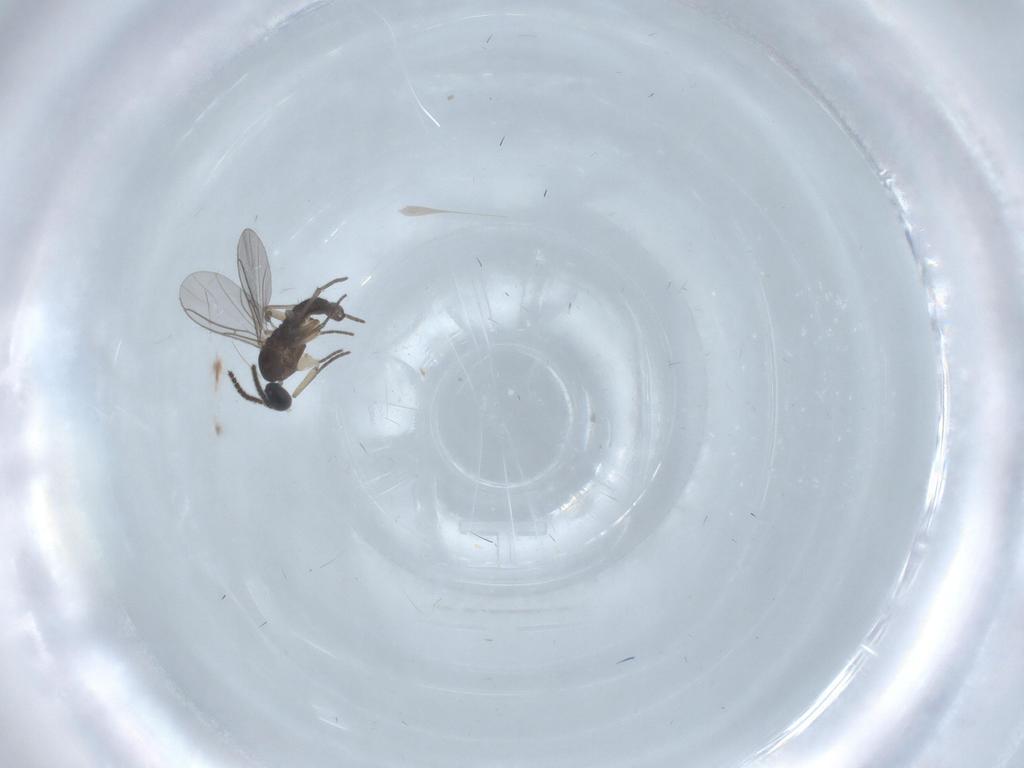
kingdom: Animalia
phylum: Arthropoda
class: Insecta
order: Diptera
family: Sciaridae
